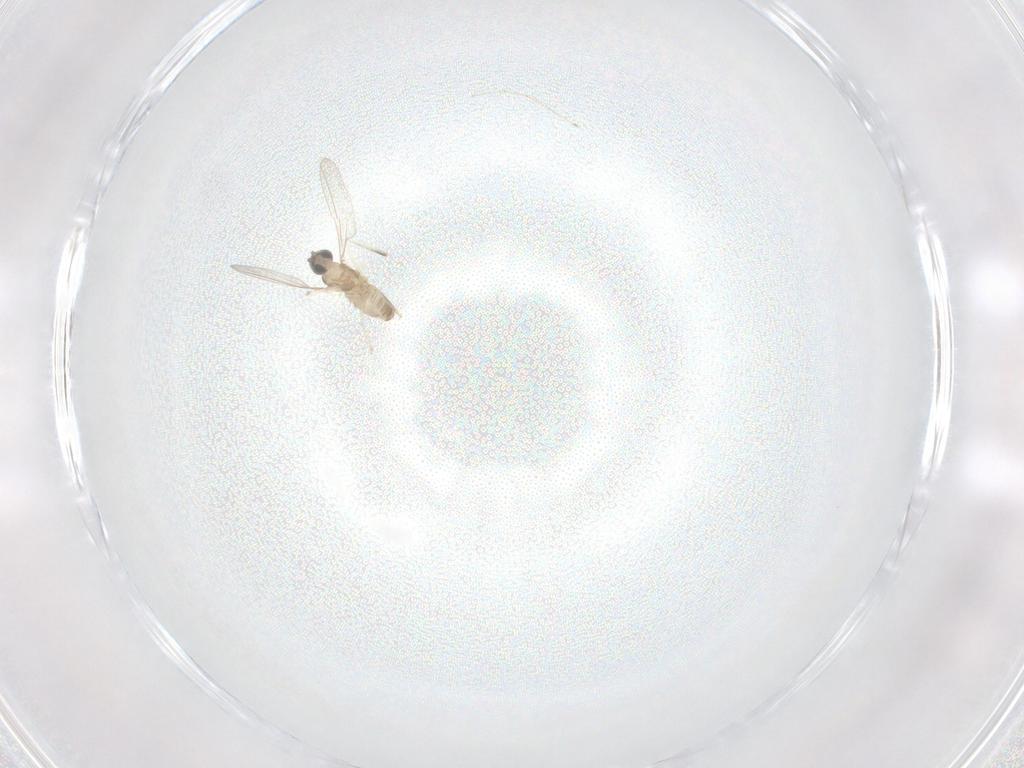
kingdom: Animalia
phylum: Arthropoda
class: Insecta
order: Diptera
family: Cecidomyiidae
